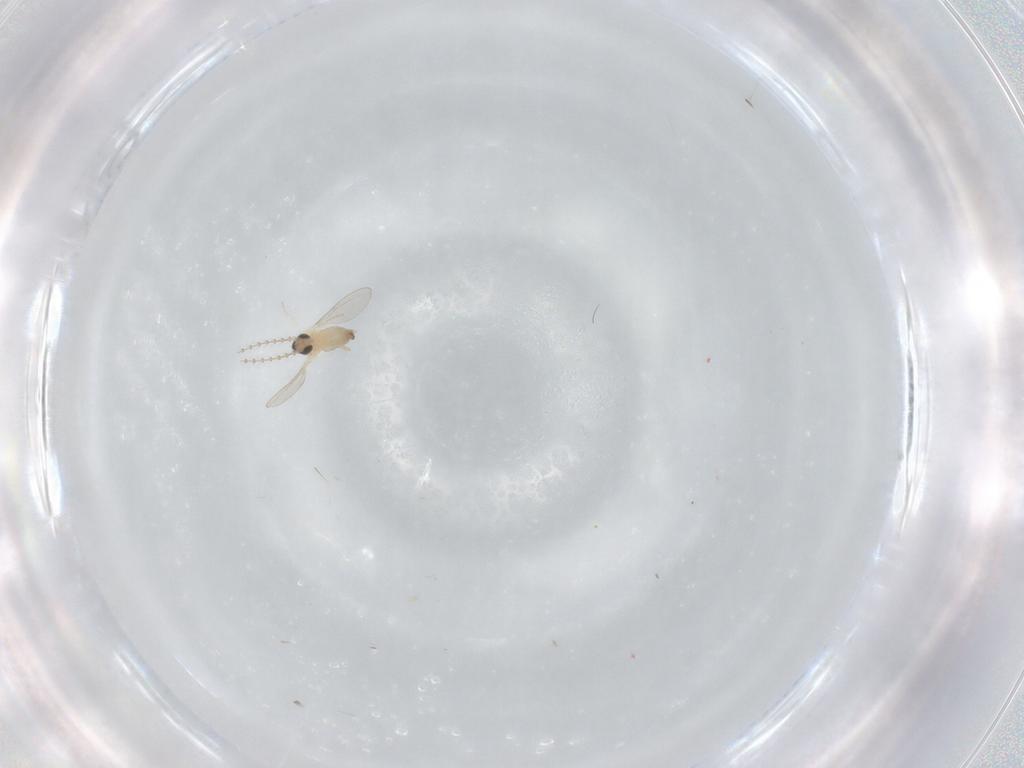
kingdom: Animalia
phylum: Arthropoda
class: Insecta
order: Diptera
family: Cecidomyiidae
